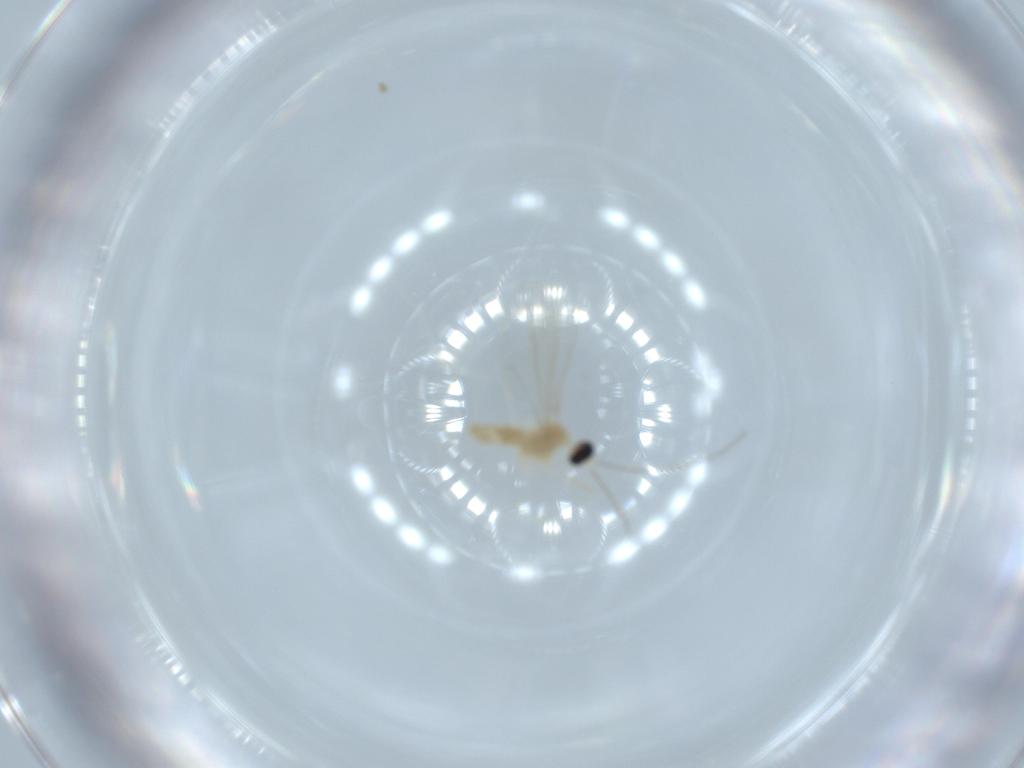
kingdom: Animalia
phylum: Arthropoda
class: Insecta
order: Diptera
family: Cecidomyiidae
